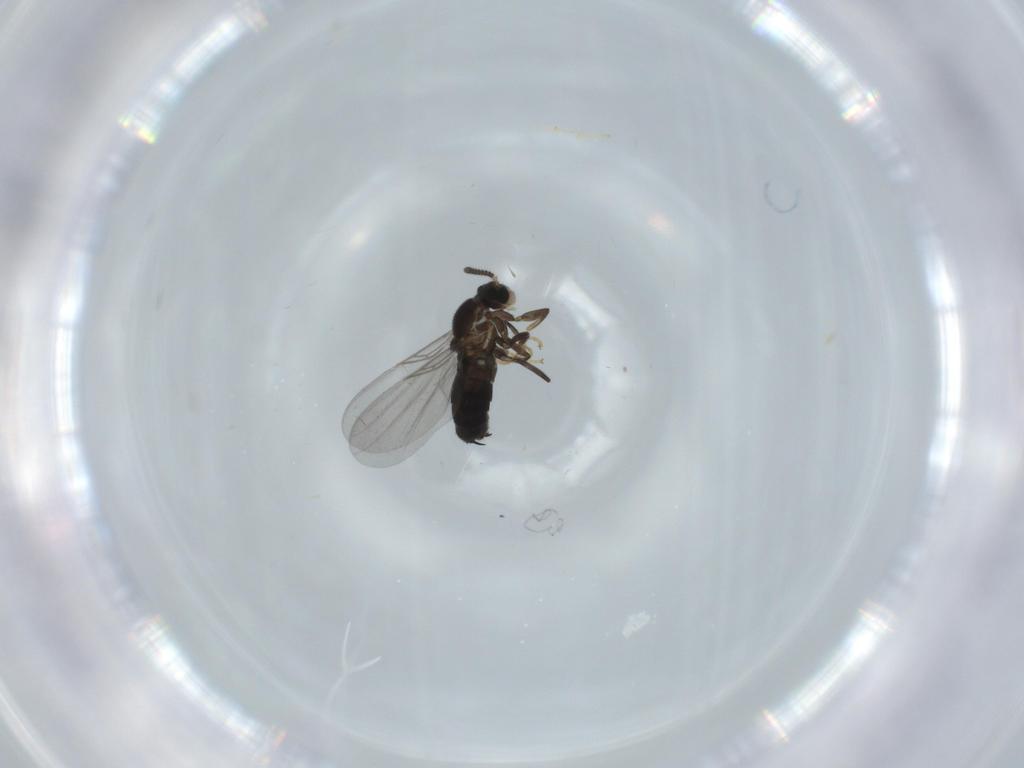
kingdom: Animalia
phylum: Arthropoda
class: Insecta
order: Diptera
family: Scatopsidae
